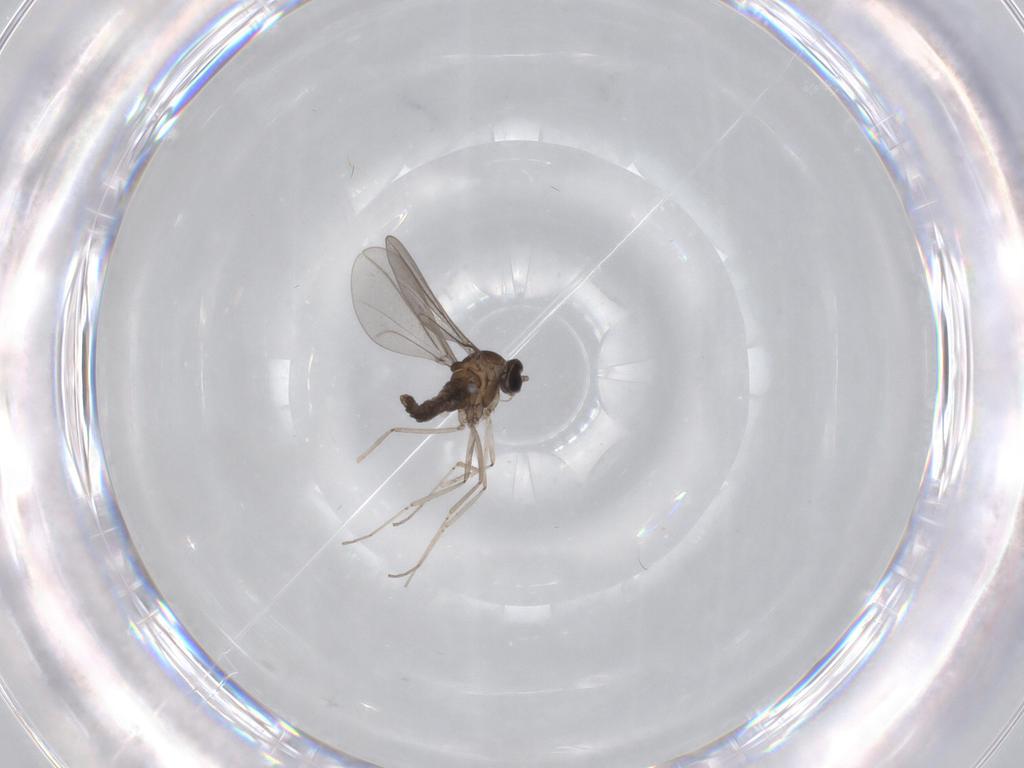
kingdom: Animalia
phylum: Arthropoda
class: Insecta
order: Diptera
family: Cecidomyiidae
